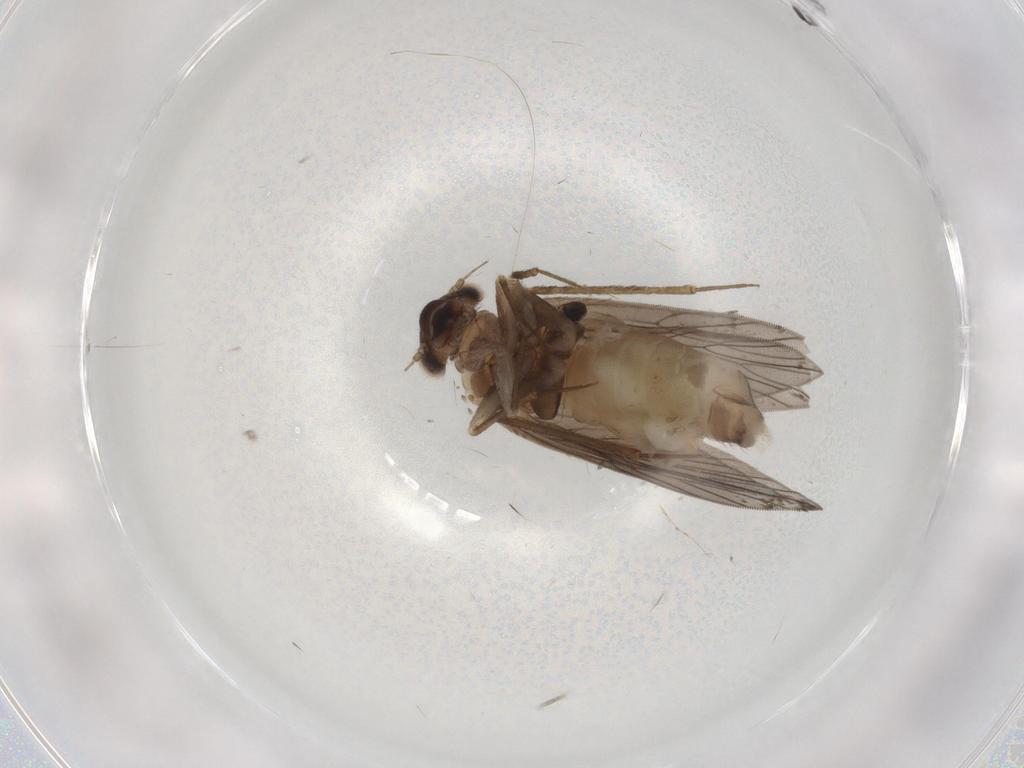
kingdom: Animalia
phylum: Arthropoda
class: Insecta
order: Psocodea
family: Lepidopsocidae
